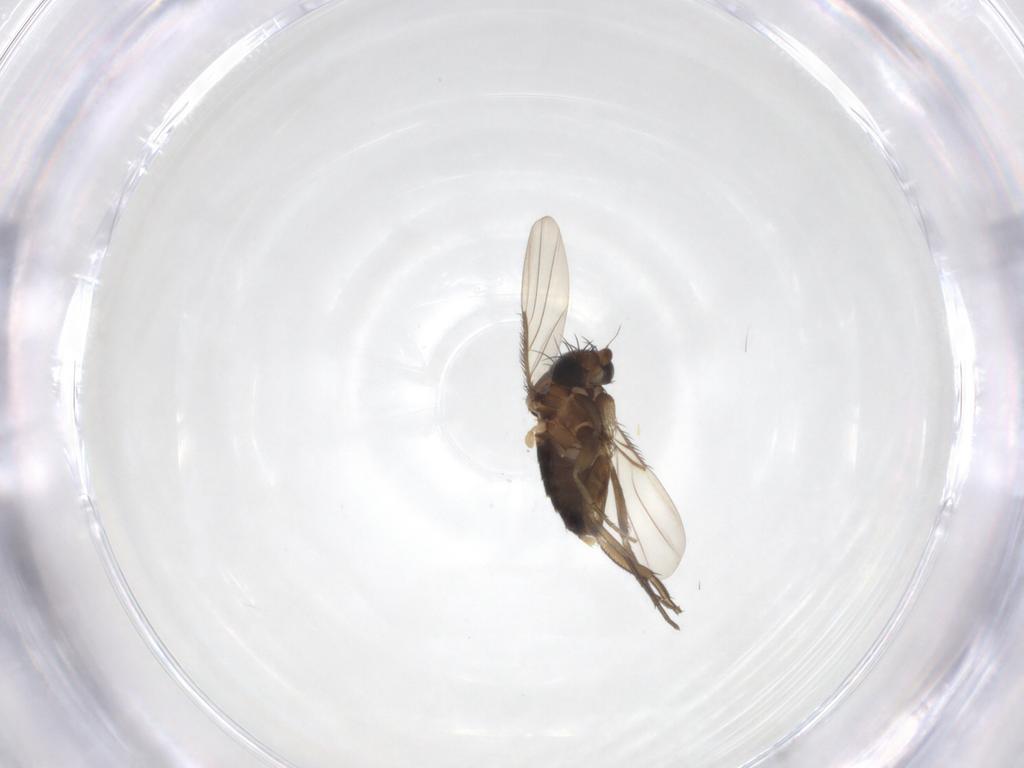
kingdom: Animalia
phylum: Arthropoda
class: Insecta
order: Diptera
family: Phoridae
